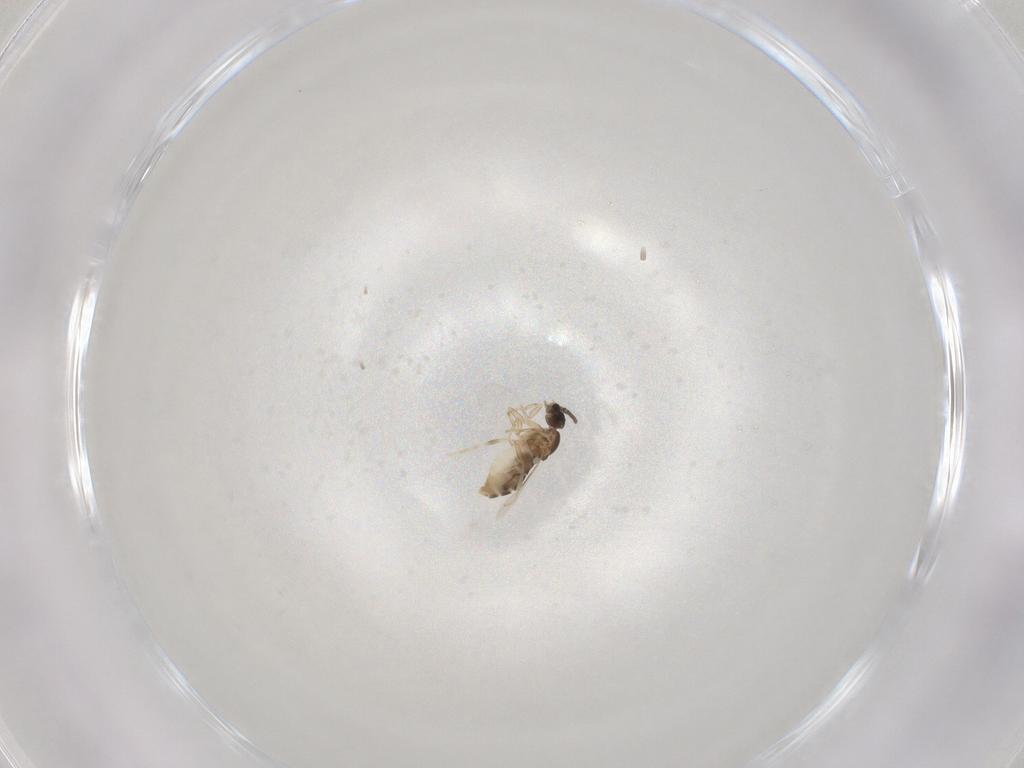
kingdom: Animalia
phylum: Arthropoda
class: Insecta
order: Diptera
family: Scatopsidae
